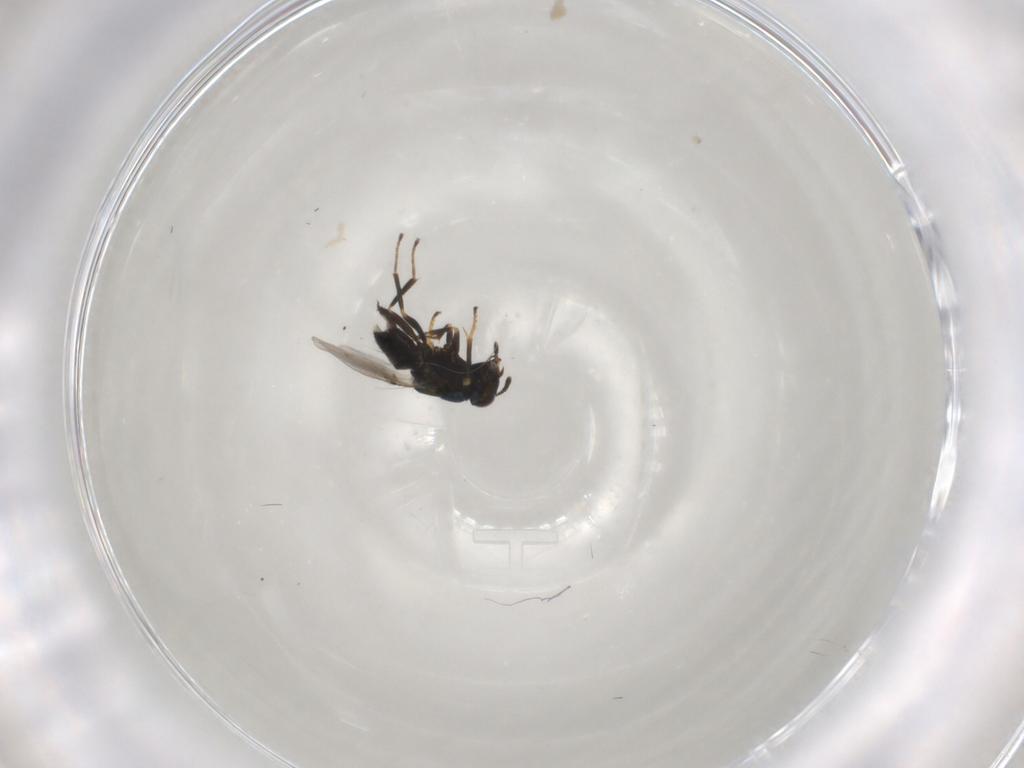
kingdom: Animalia
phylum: Arthropoda
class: Insecta
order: Hymenoptera
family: Encyrtidae
